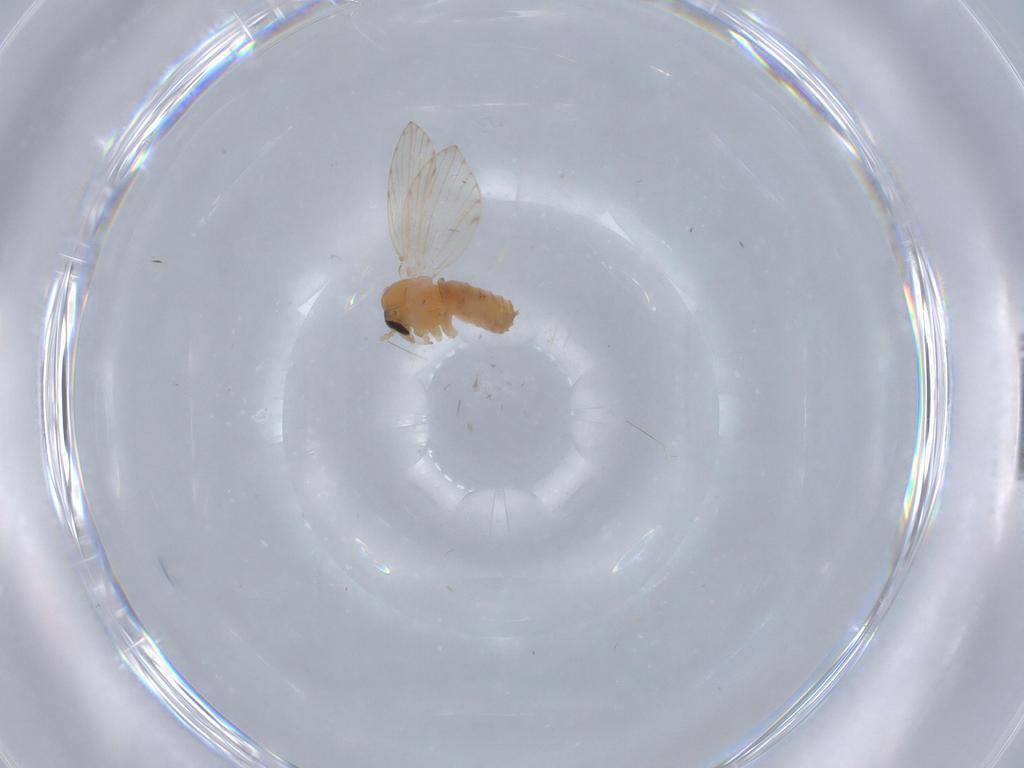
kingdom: Animalia
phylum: Arthropoda
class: Insecta
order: Diptera
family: Psychodidae
